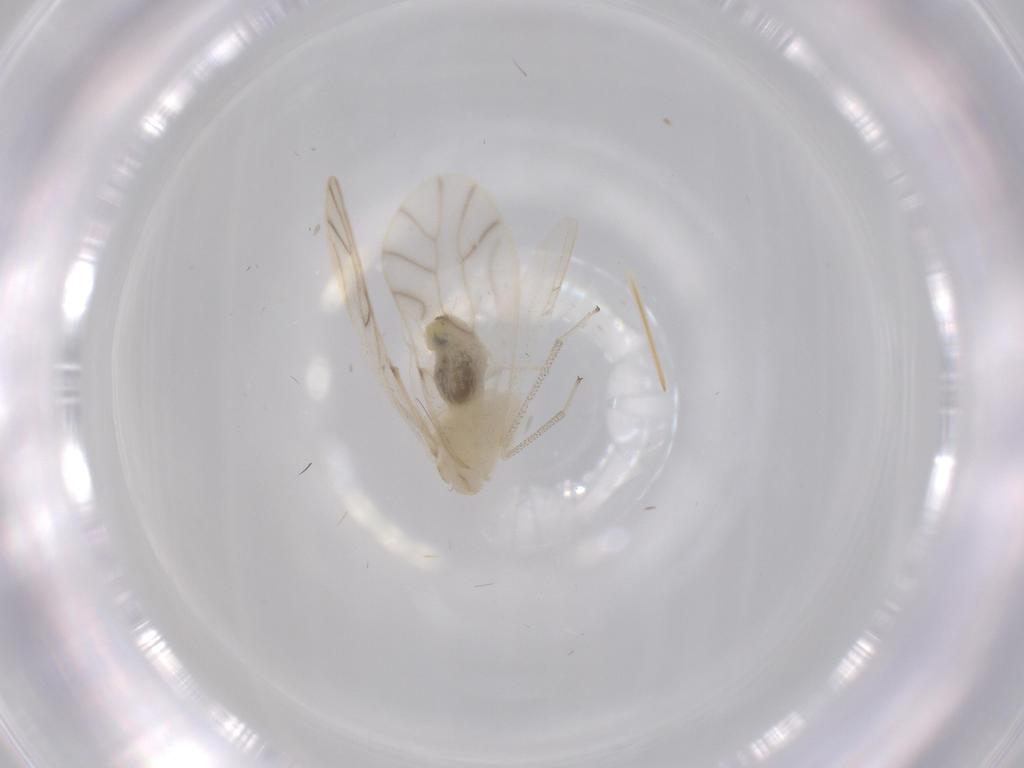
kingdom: Animalia
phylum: Arthropoda
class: Insecta
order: Psocodea
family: Caeciliusidae
